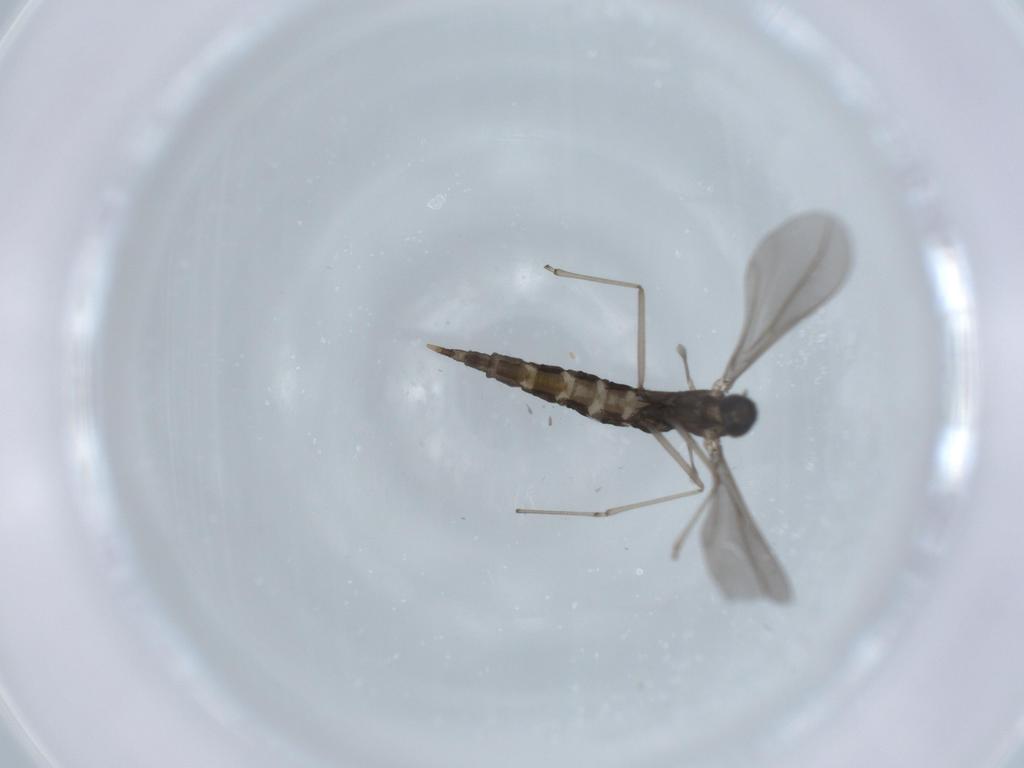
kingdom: Animalia
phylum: Arthropoda
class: Insecta
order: Diptera
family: Cecidomyiidae
